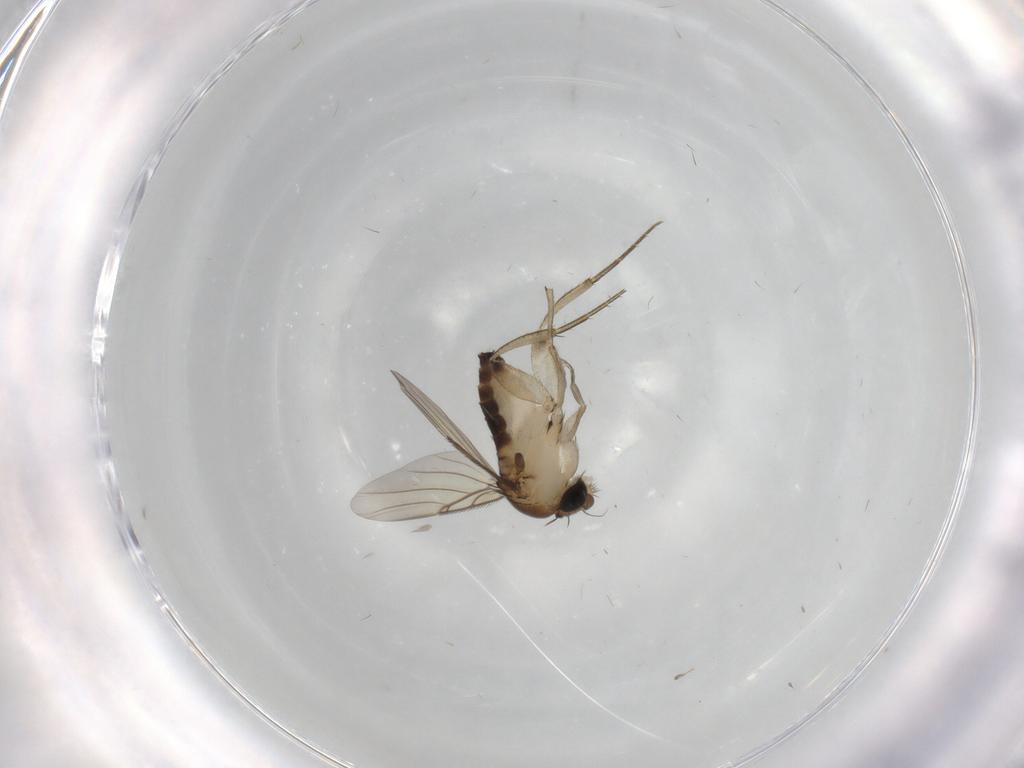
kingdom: Animalia
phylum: Arthropoda
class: Insecta
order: Diptera
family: Phoridae
